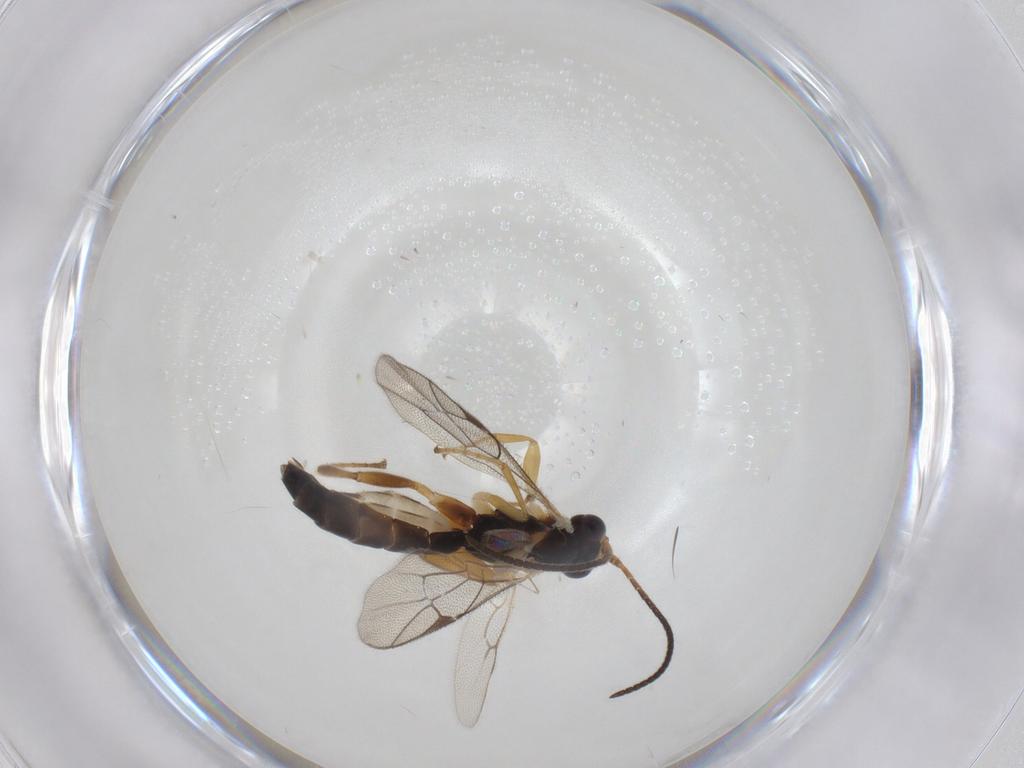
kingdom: Animalia
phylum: Arthropoda
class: Insecta
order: Hymenoptera
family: Ichneumonidae
